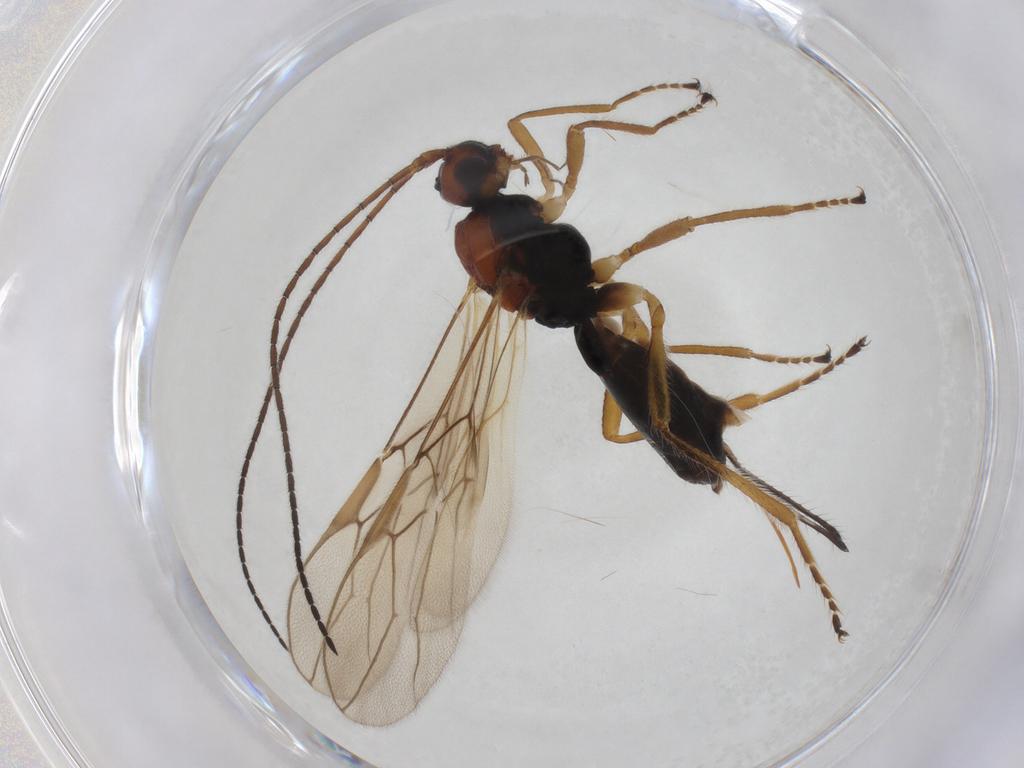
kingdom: Animalia
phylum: Arthropoda
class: Insecta
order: Hymenoptera
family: Braconidae
